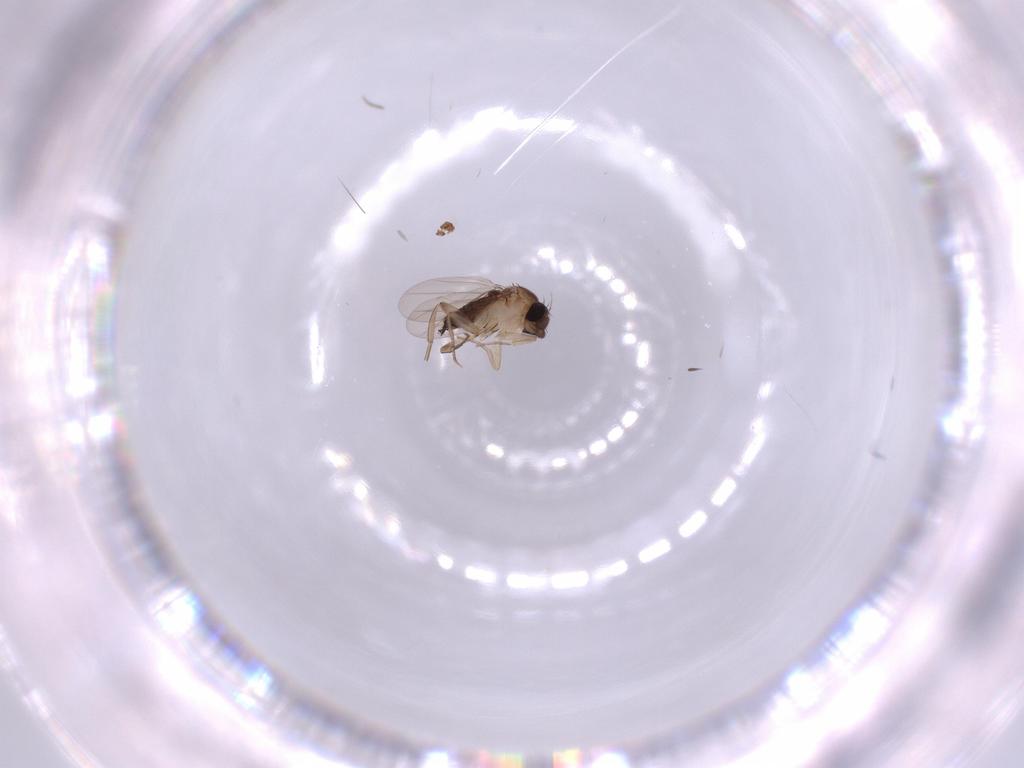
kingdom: Animalia
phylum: Arthropoda
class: Insecta
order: Diptera
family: Phoridae
